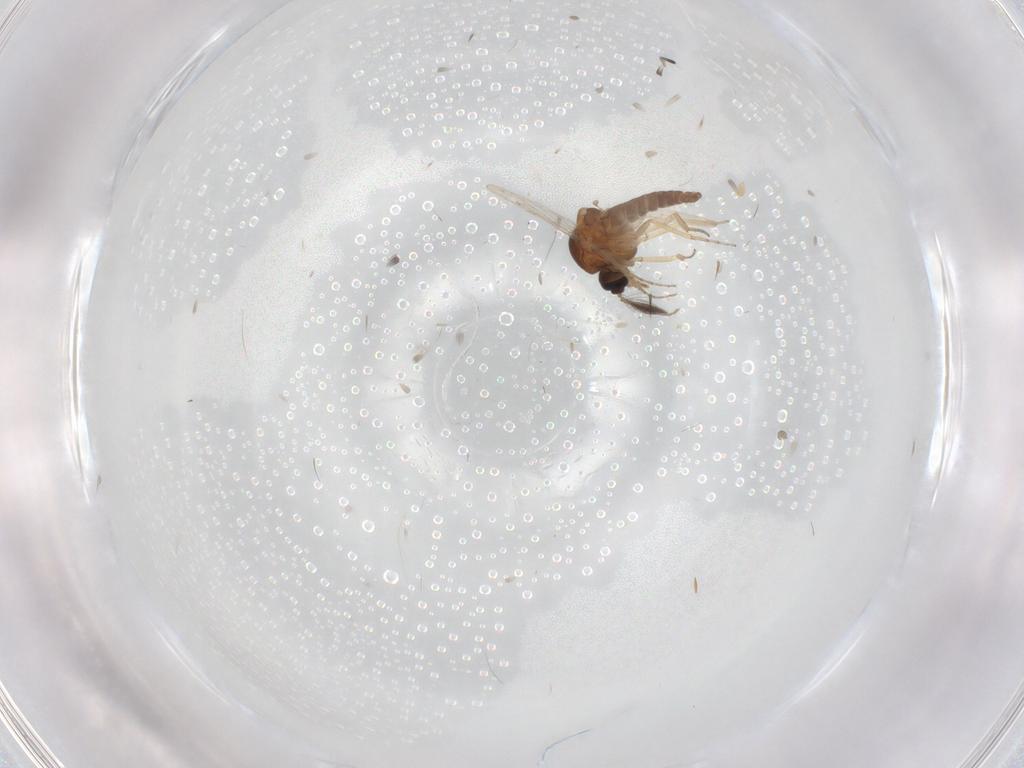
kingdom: Animalia
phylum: Arthropoda
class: Insecta
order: Diptera
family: Ceratopogonidae
